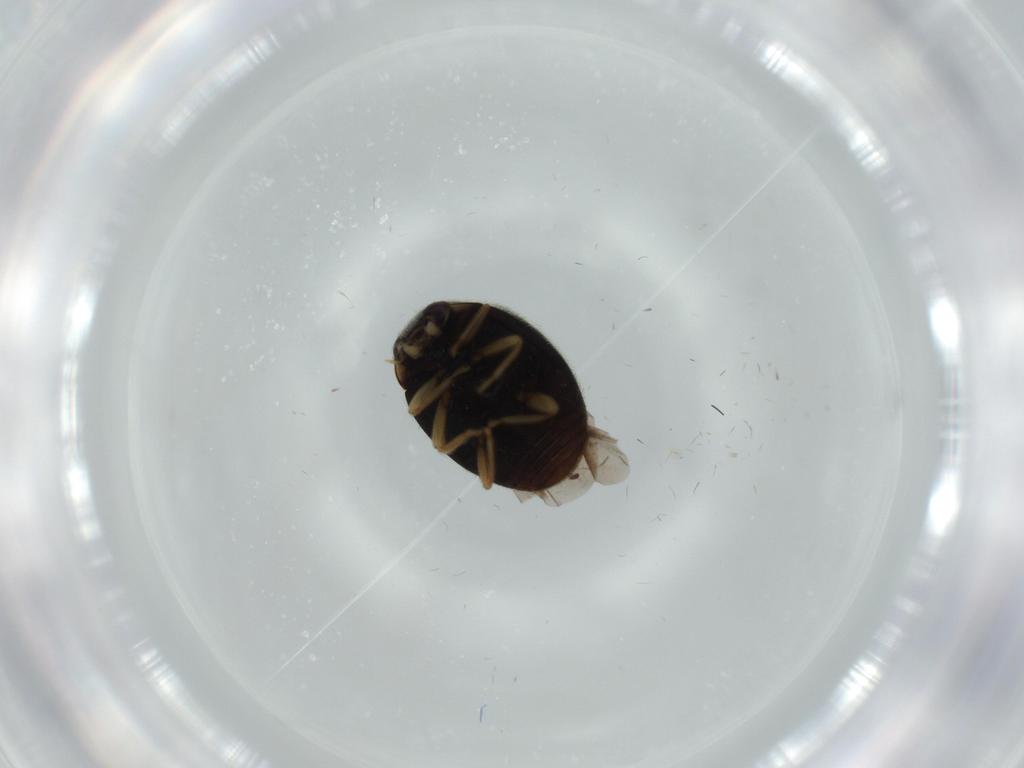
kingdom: Animalia
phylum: Arthropoda
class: Insecta
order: Coleoptera
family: Coccinellidae
